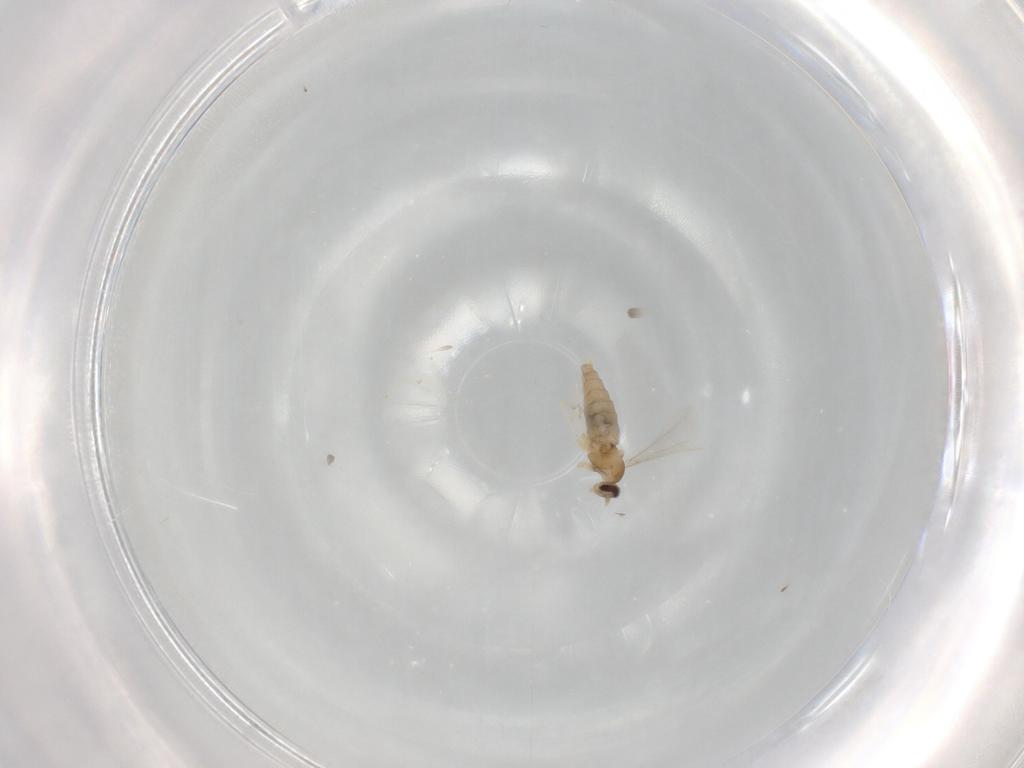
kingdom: Animalia
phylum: Arthropoda
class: Insecta
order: Diptera
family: Cecidomyiidae
